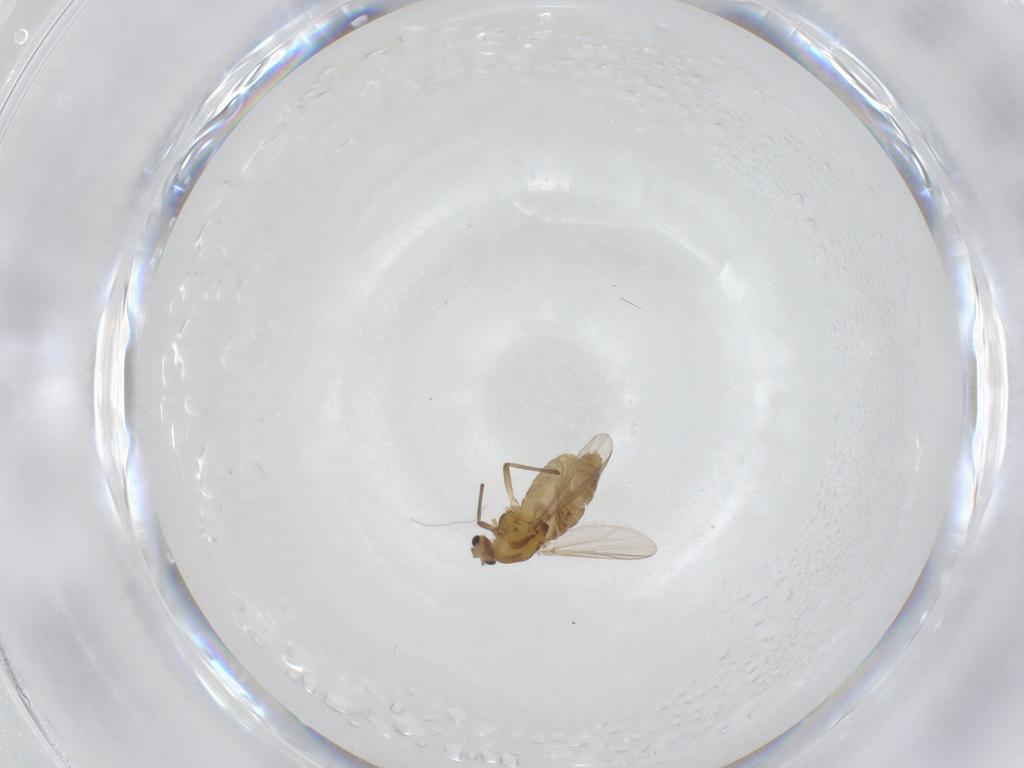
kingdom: Animalia
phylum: Arthropoda
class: Insecta
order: Diptera
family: Chironomidae
